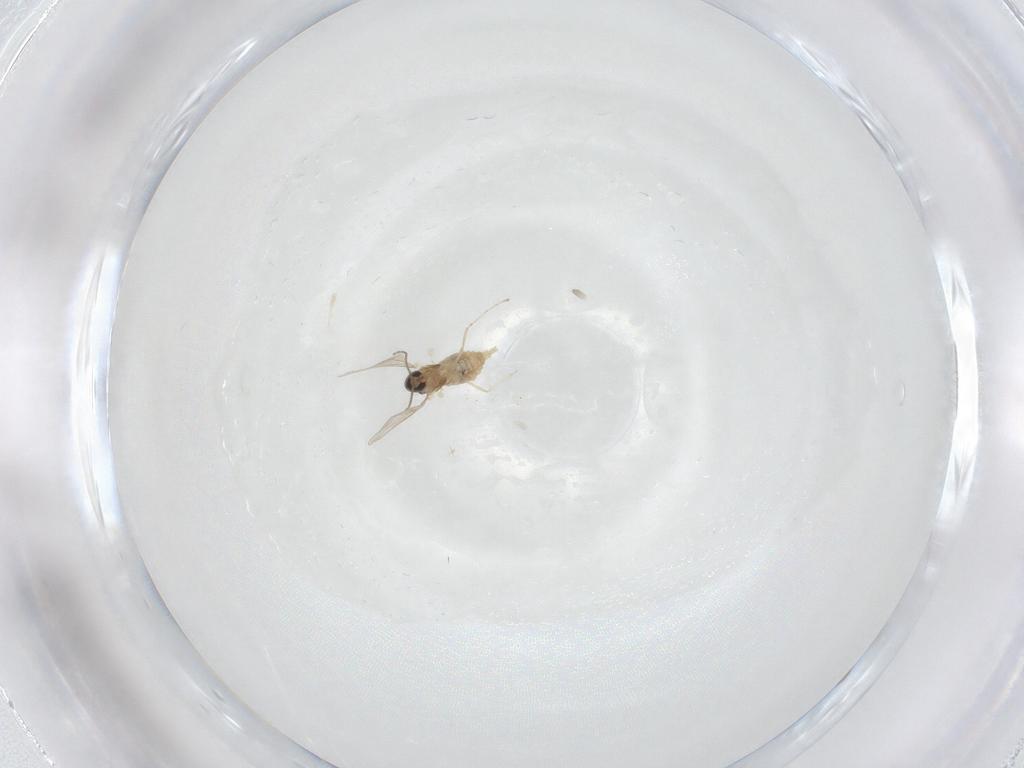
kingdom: Animalia
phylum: Arthropoda
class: Insecta
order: Diptera
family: Cecidomyiidae
